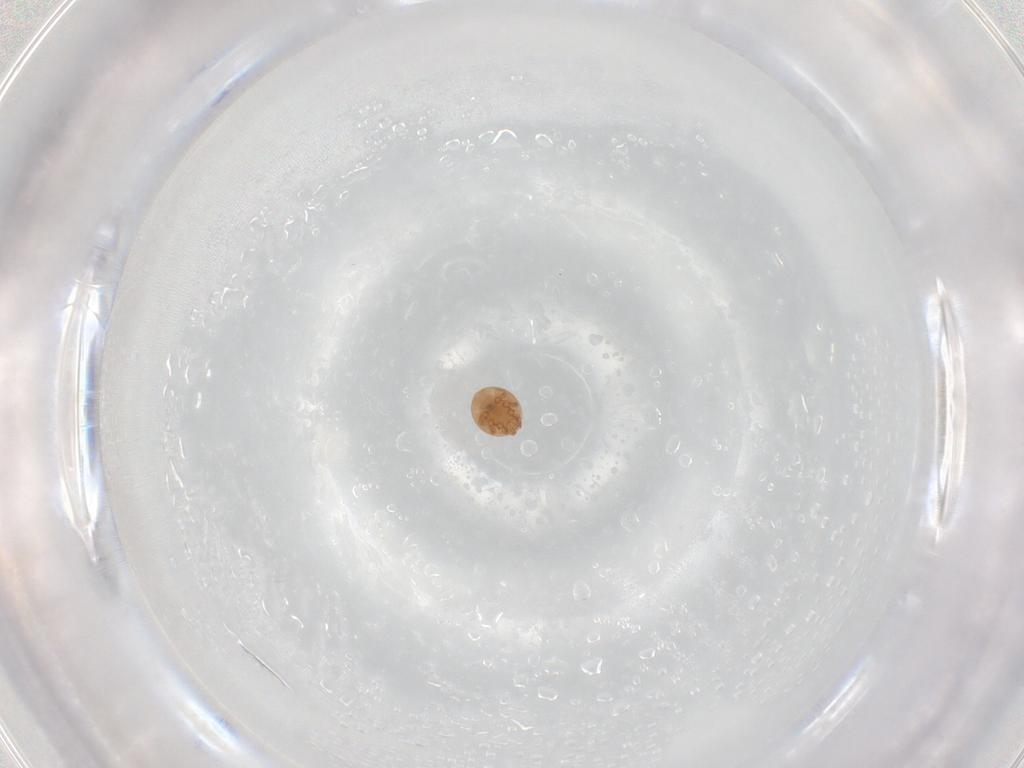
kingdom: Animalia
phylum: Arthropoda
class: Arachnida
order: Mesostigmata
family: Trematuridae
